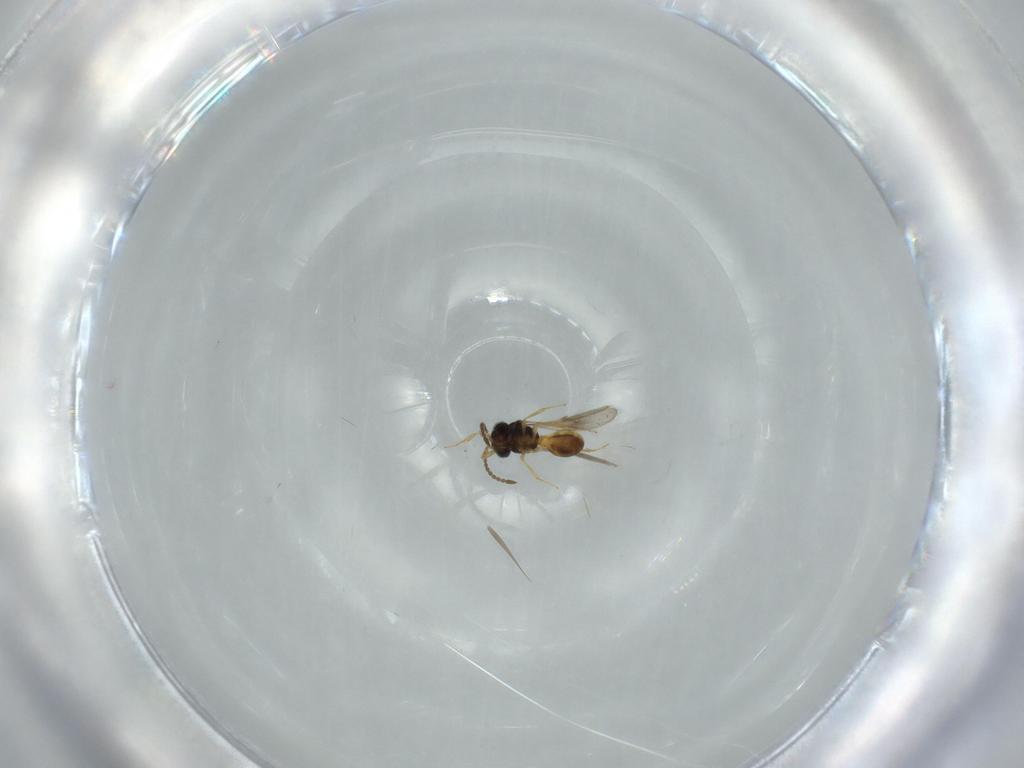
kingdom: Animalia
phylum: Arthropoda
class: Insecta
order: Hymenoptera
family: Scelionidae
